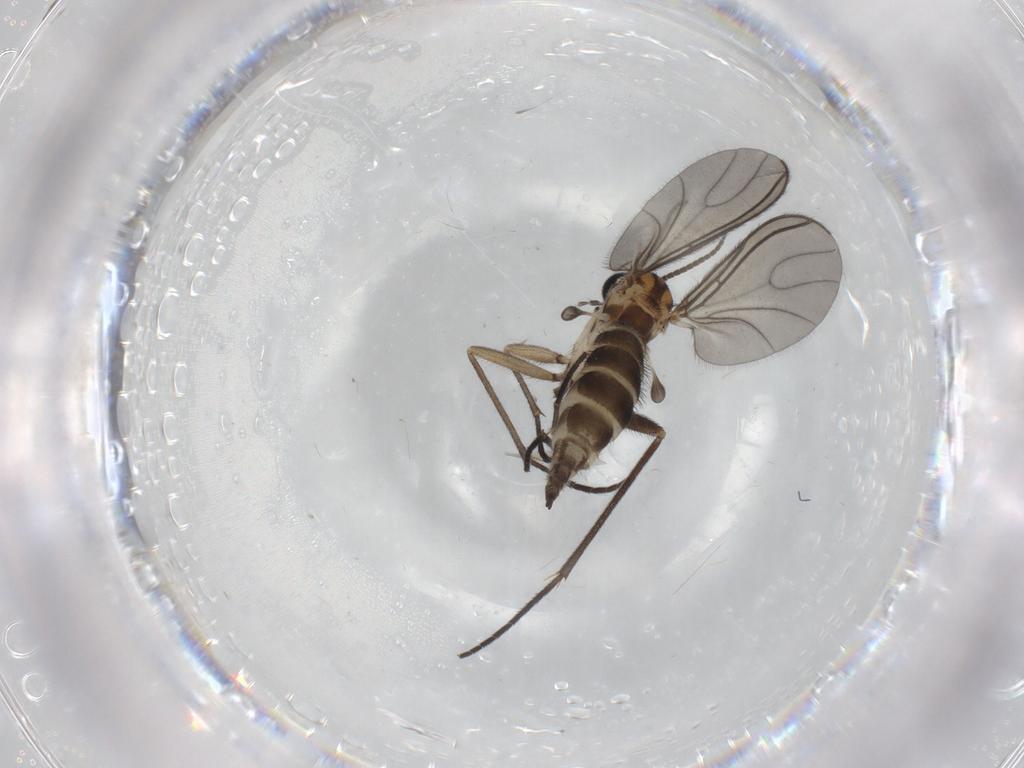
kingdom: Animalia
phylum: Arthropoda
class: Insecta
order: Diptera
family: Sciaridae
